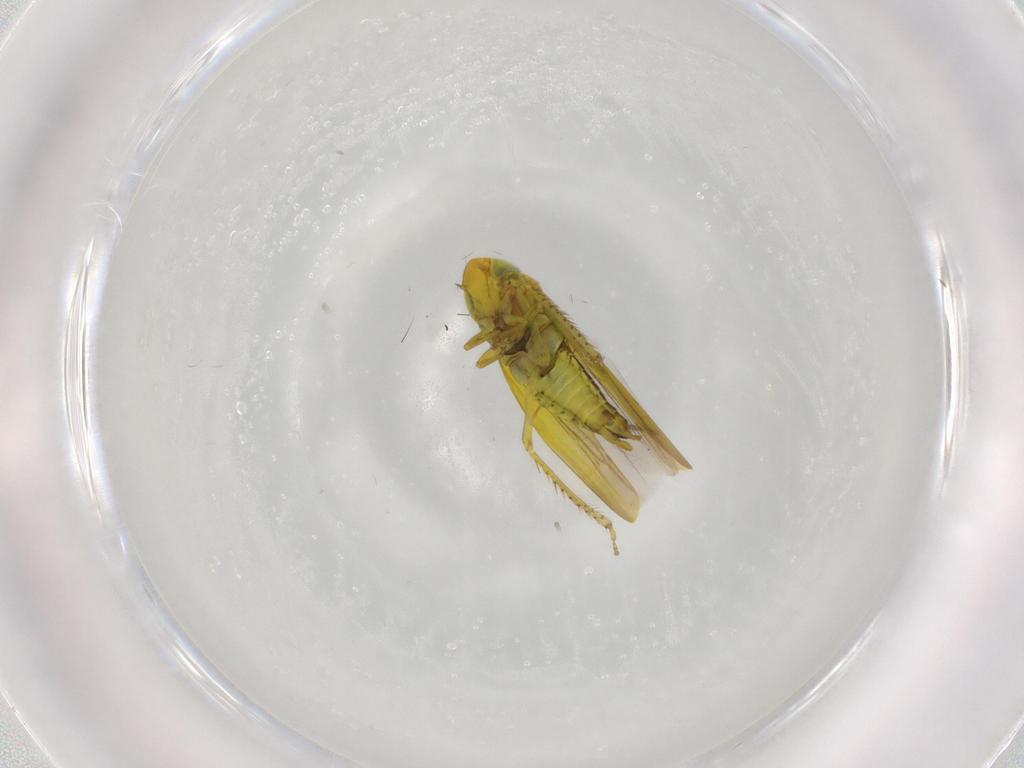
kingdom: Animalia
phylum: Arthropoda
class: Insecta
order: Hemiptera
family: Cicadellidae
